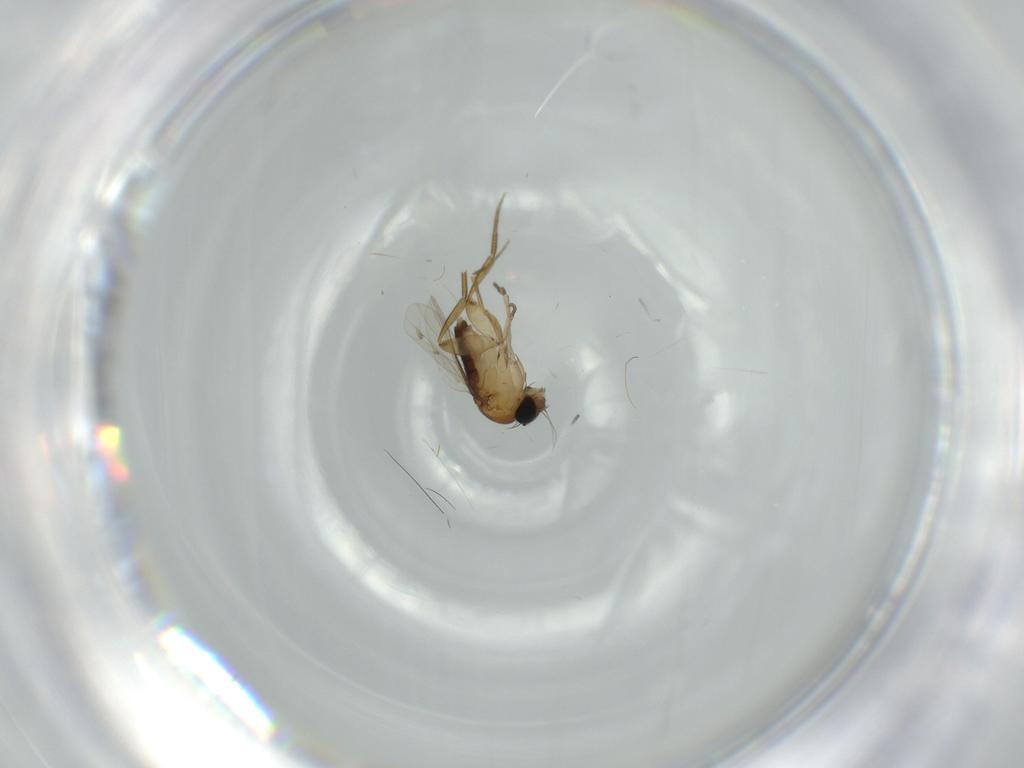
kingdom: Animalia
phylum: Arthropoda
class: Insecta
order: Diptera
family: Phoridae
